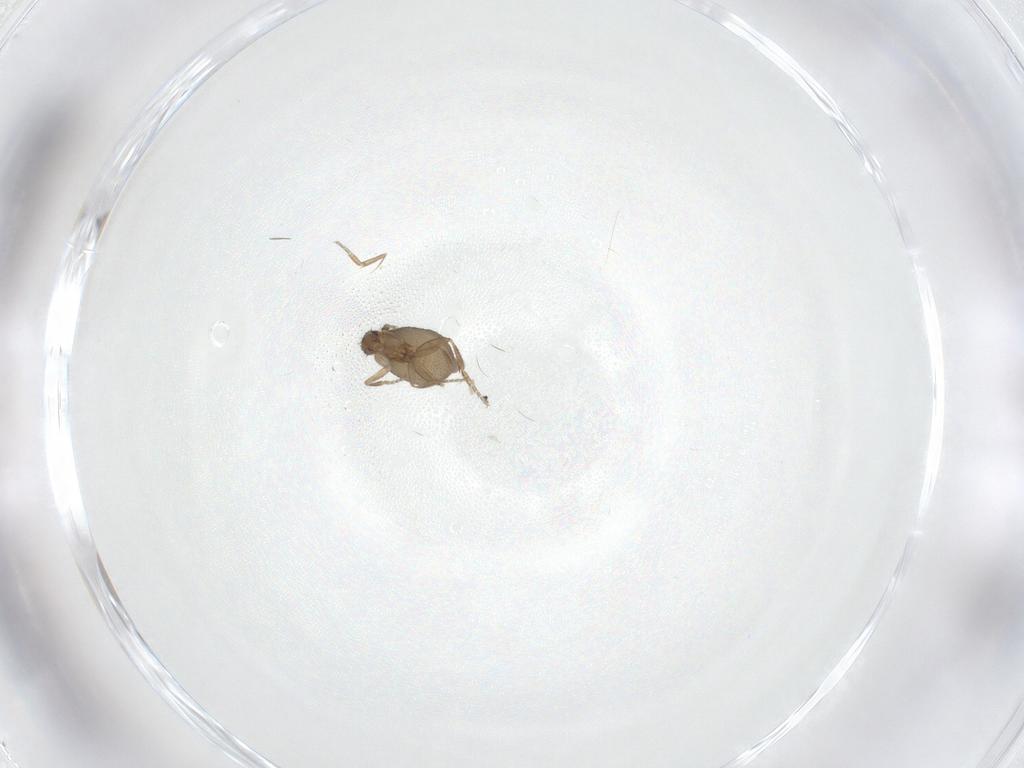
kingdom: Animalia
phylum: Arthropoda
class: Insecta
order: Diptera
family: Phoridae
